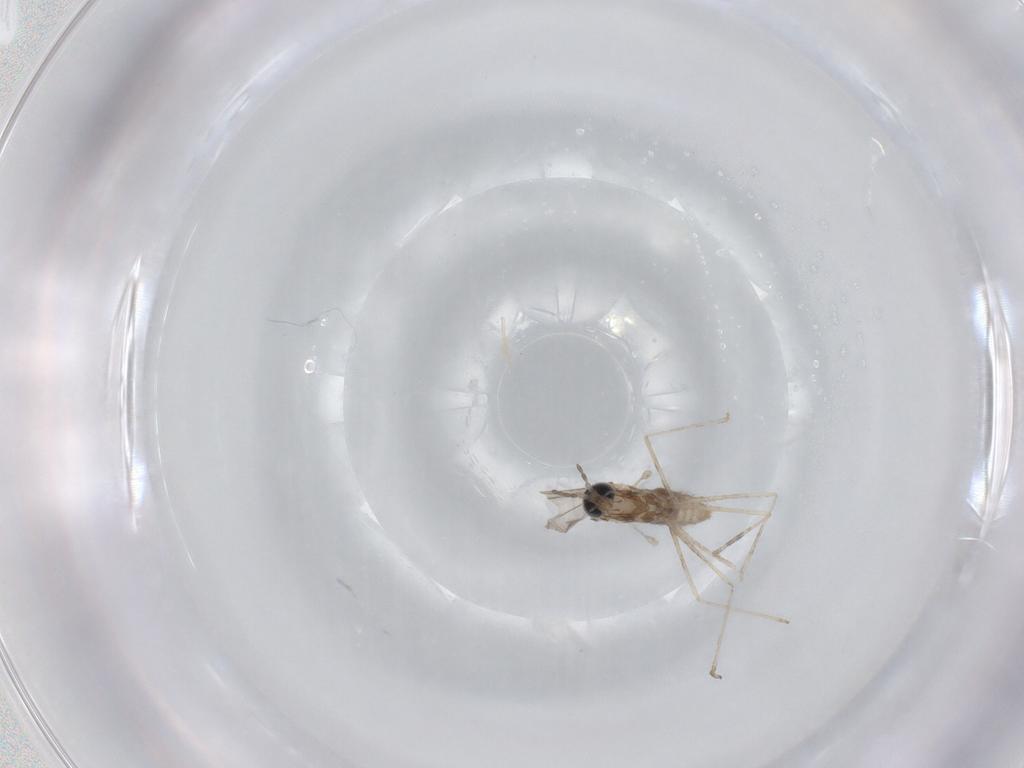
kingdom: Animalia
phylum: Arthropoda
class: Insecta
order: Diptera
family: Cecidomyiidae
